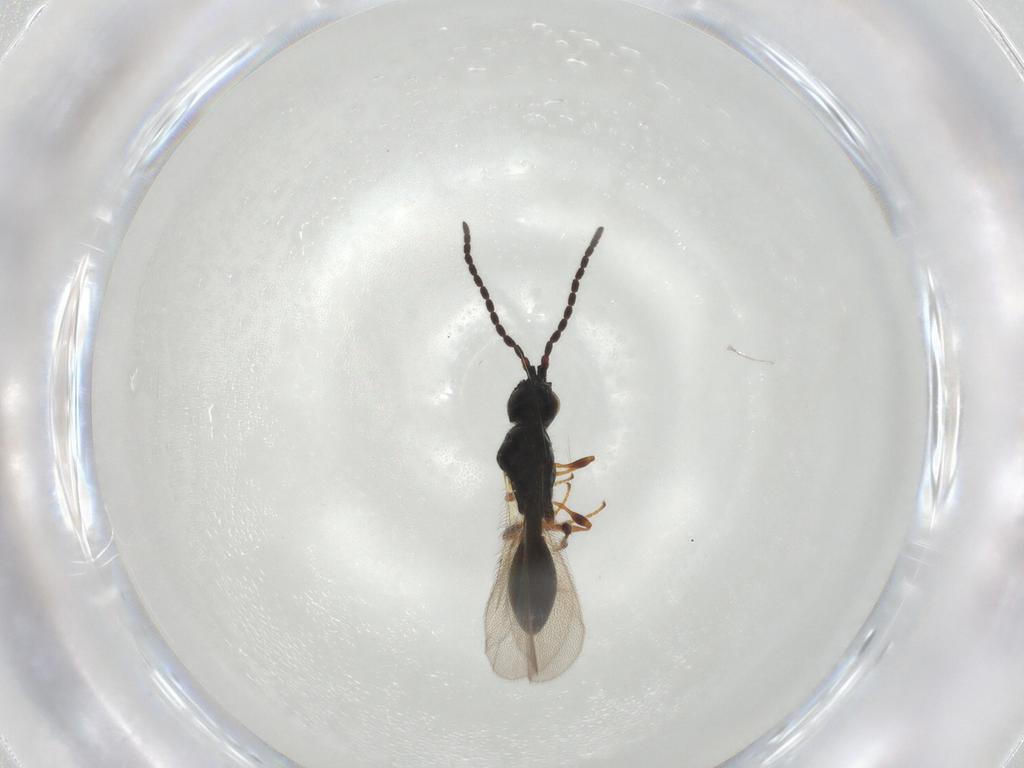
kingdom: Animalia
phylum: Arthropoda
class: Insecta
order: Hymenoptera
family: Diapriidae
